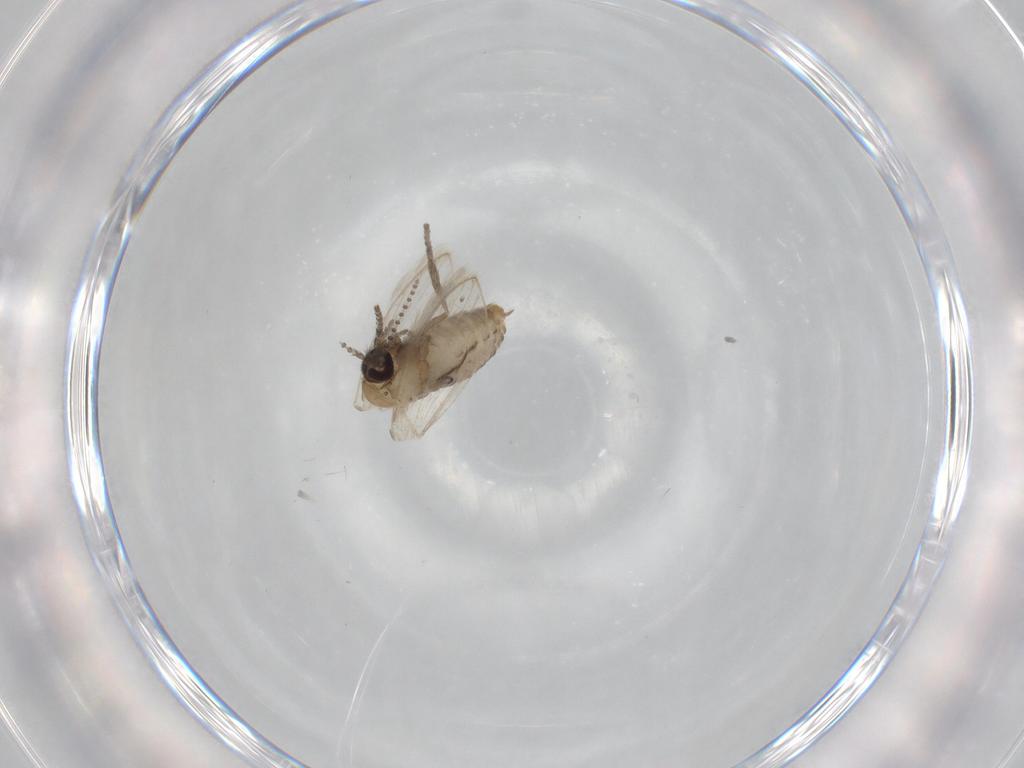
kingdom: Animalia
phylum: Arthropoda
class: Insecta
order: Diptera
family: Psychodidae
